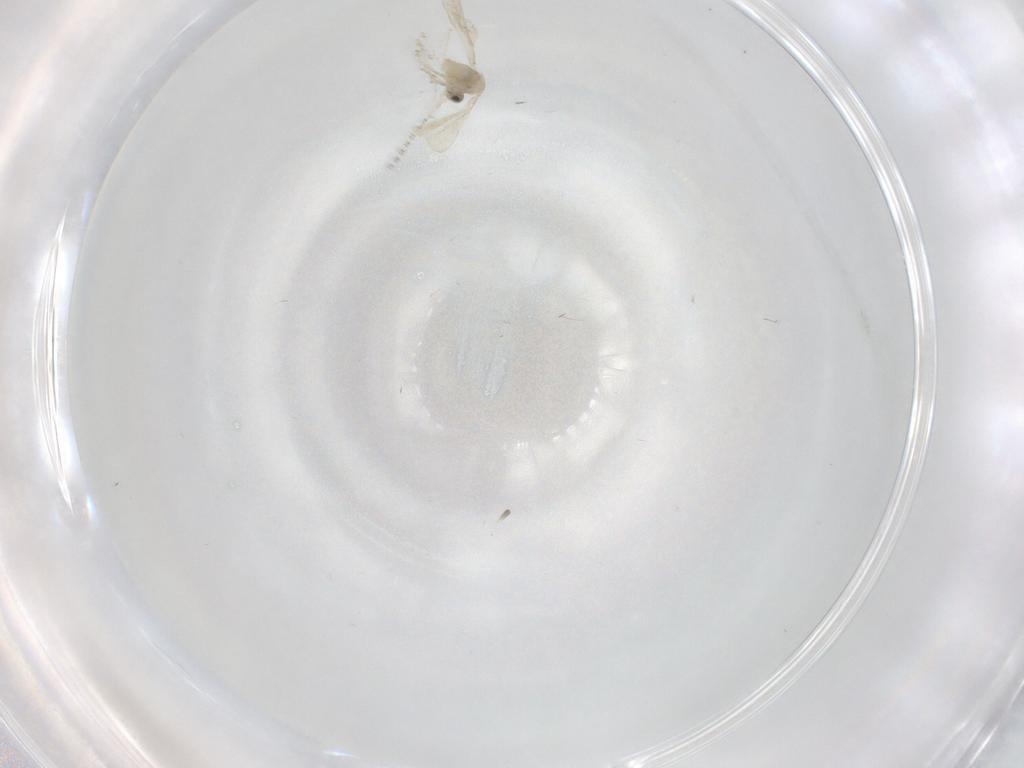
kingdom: Animalia
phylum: Arthropoda
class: Insecta
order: Diptera
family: Cecidomyiidae
